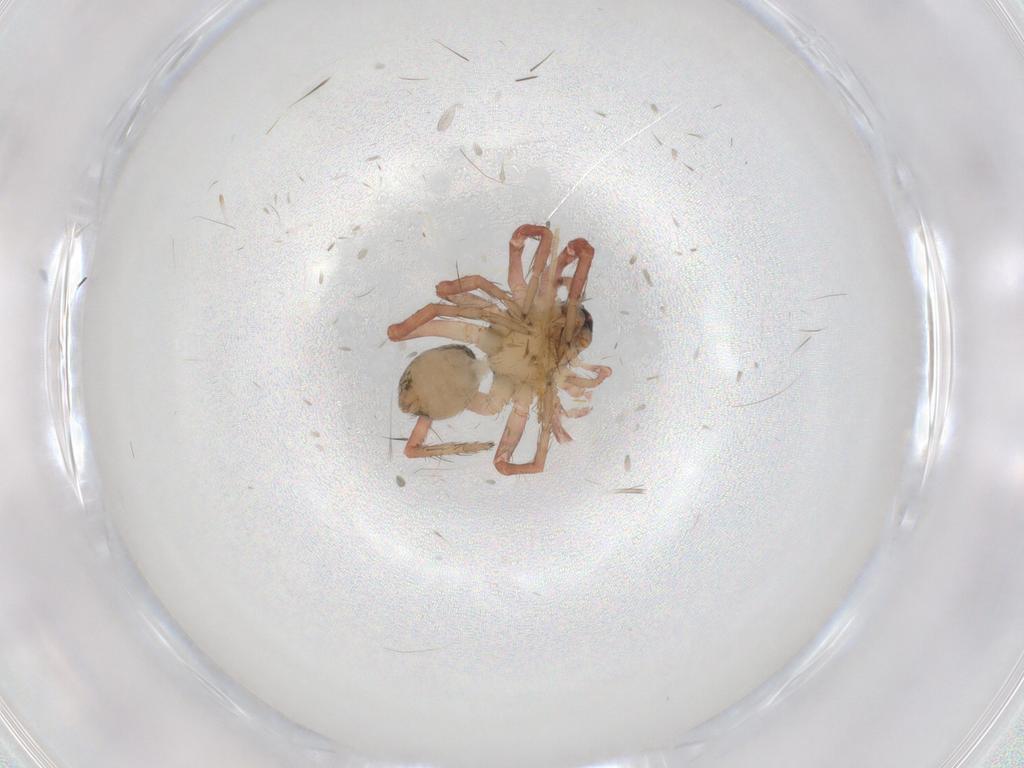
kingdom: Animalia
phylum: Arthropoda
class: Arachnida
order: Araneae
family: Lycosidae
